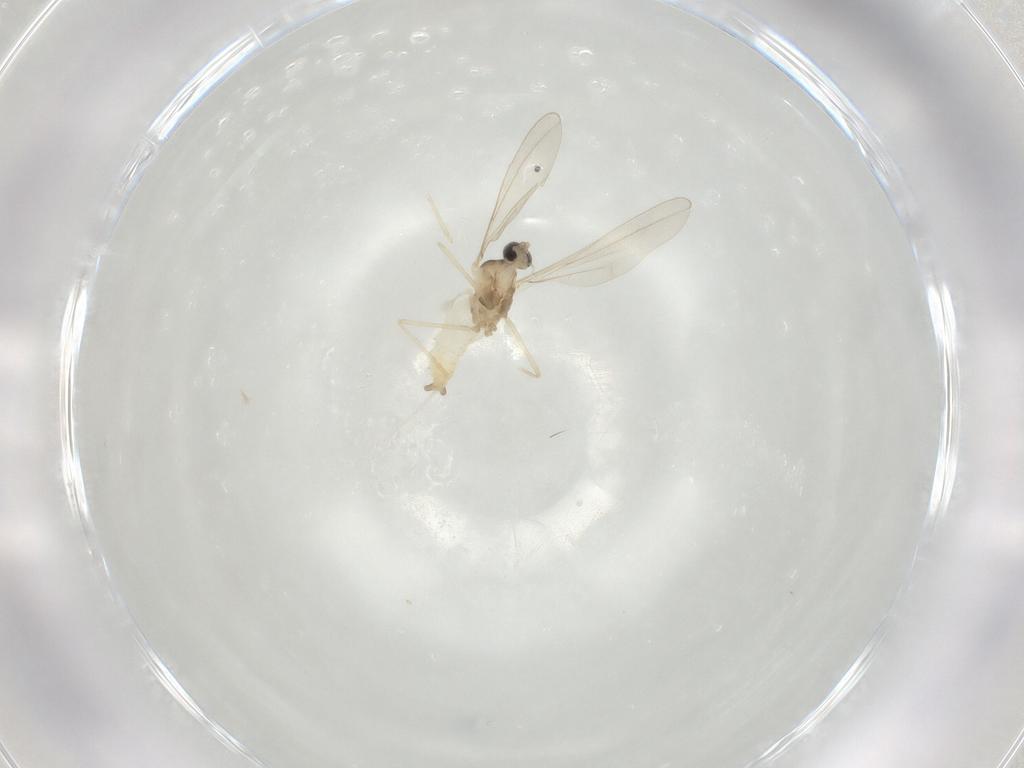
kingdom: Animalia
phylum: Arthropoda
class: Insecta
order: Diptera
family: Cecidomyiidae
